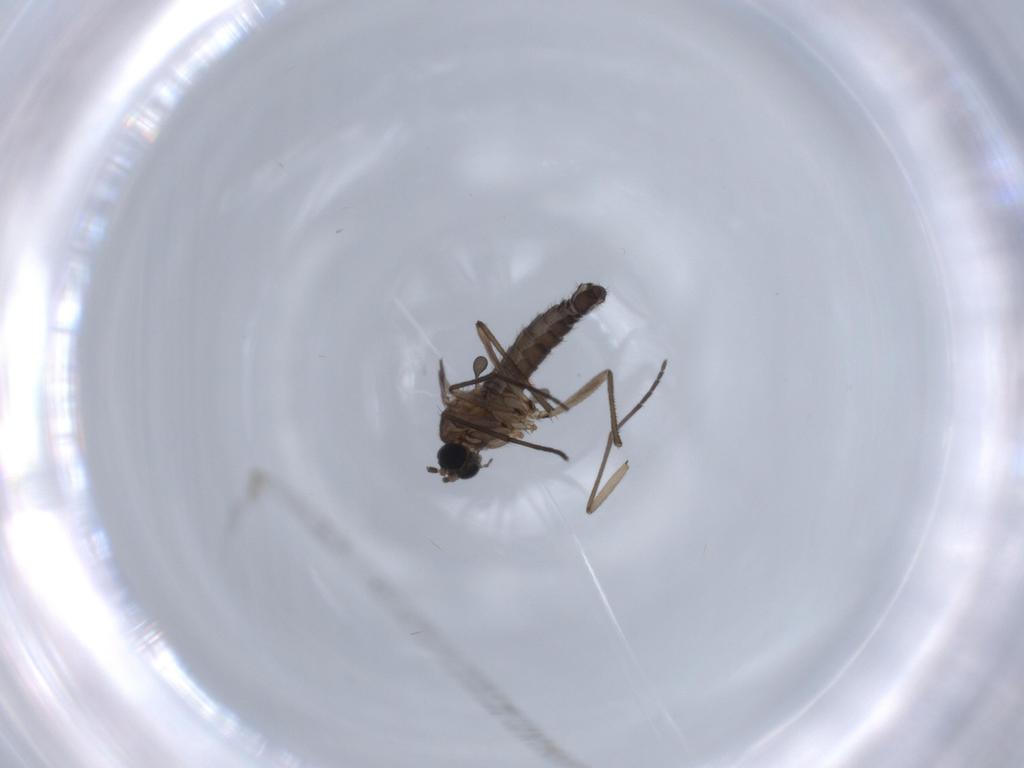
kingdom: Animalia
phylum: Arthropoda
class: Insecta
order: Diptera
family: Sciaridae
